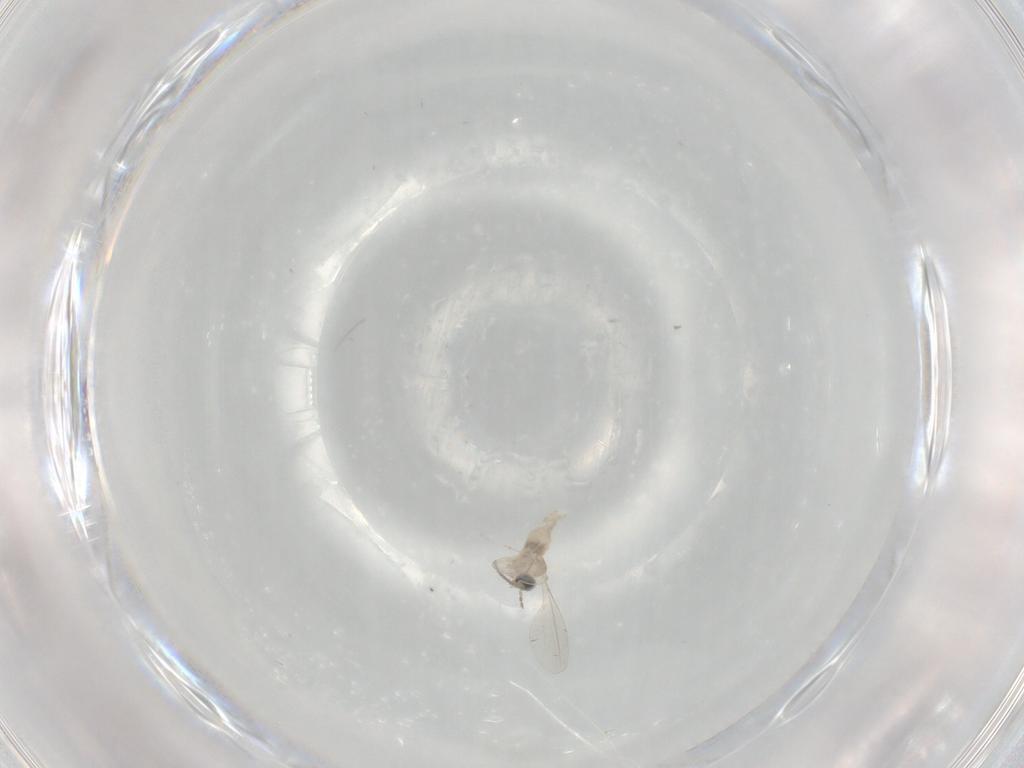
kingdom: Animalia
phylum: Arthropoda
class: Insecta
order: Diptera
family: Cecidomyiidae
